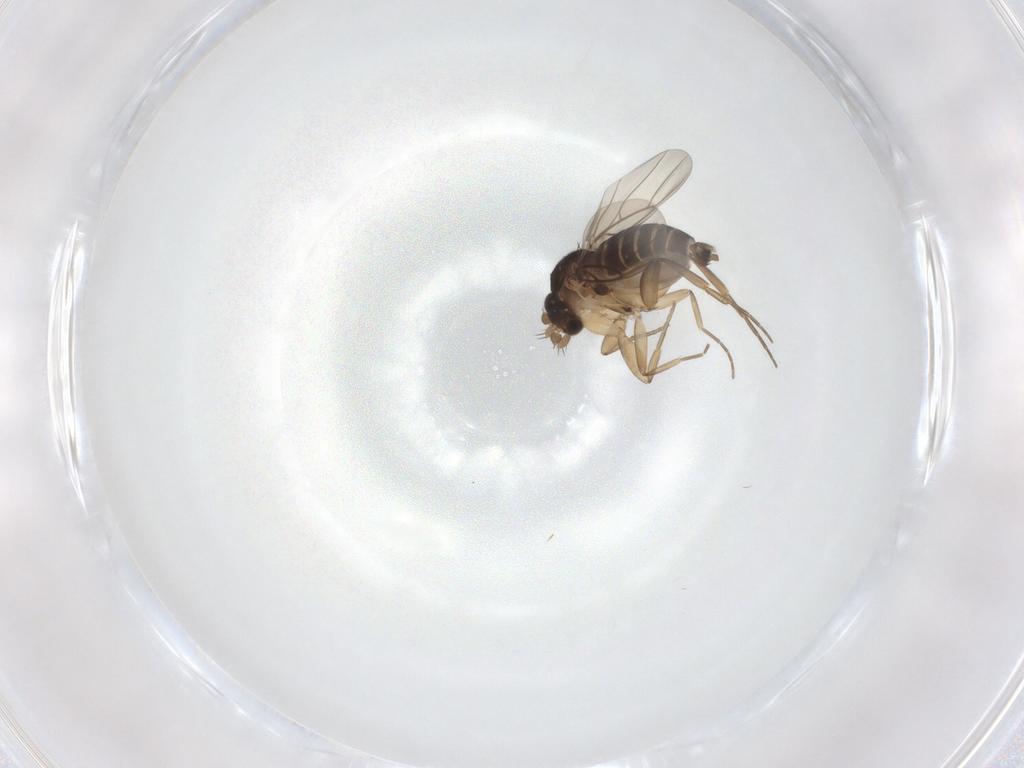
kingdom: Animalia
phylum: Arthropoda
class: Insecta
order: Diptera
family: Phoridae
